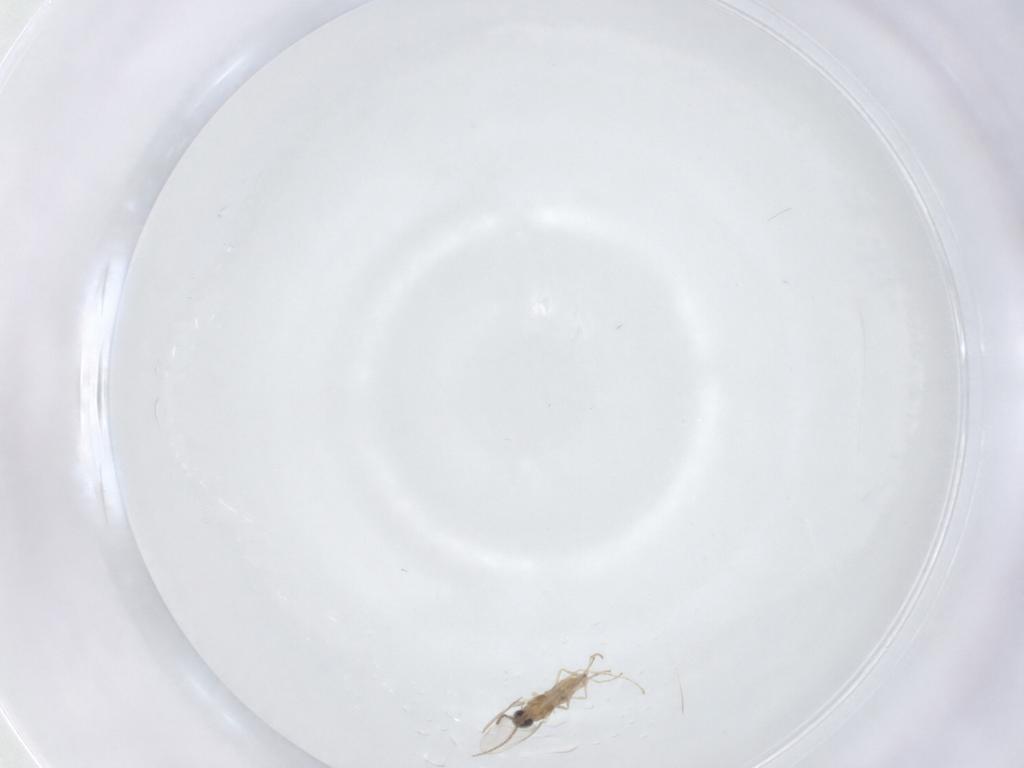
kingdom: Animalia
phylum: Arthropoda
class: Insecta
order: Diptera
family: Cecidomyiidae
